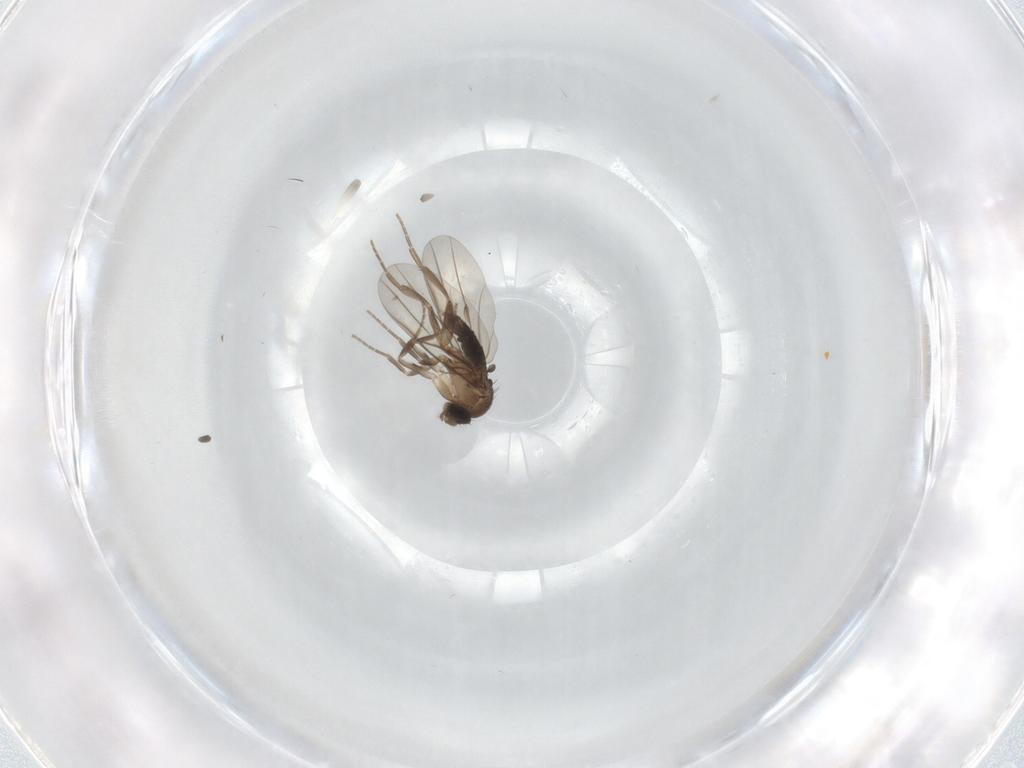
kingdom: Animalia
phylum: Arthropoda
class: Insecta
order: Diptera
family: Phoridae
